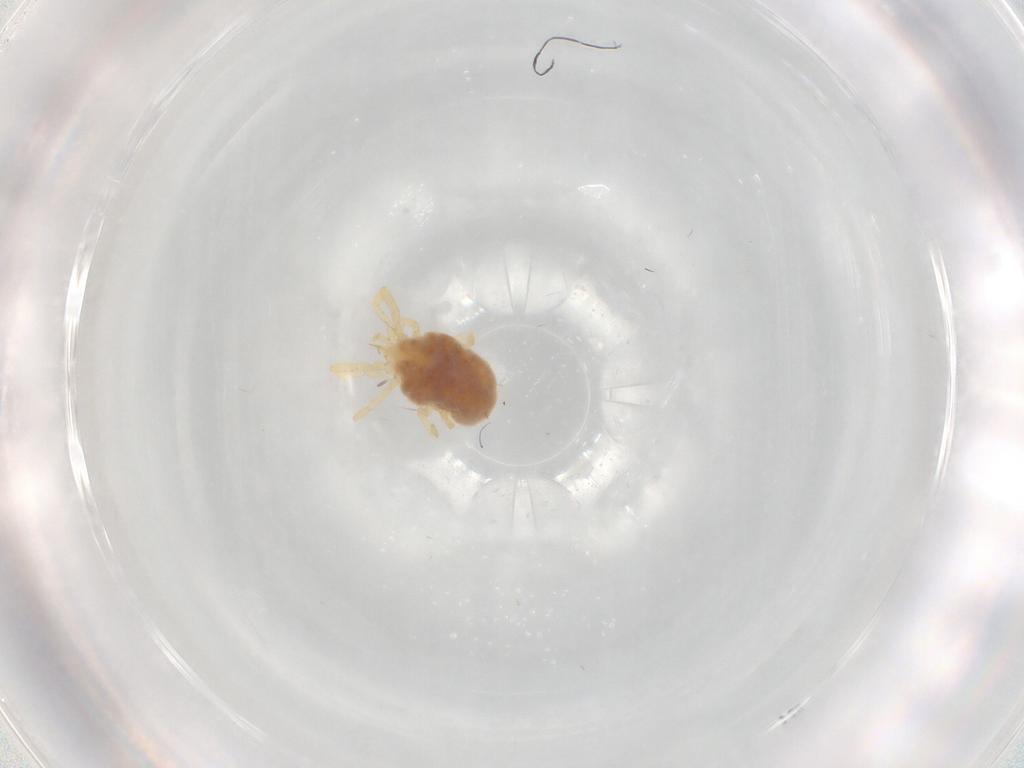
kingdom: Animalia
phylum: Arthropoda
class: Arachnida
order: Trombidiformes
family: Erythraeidae
